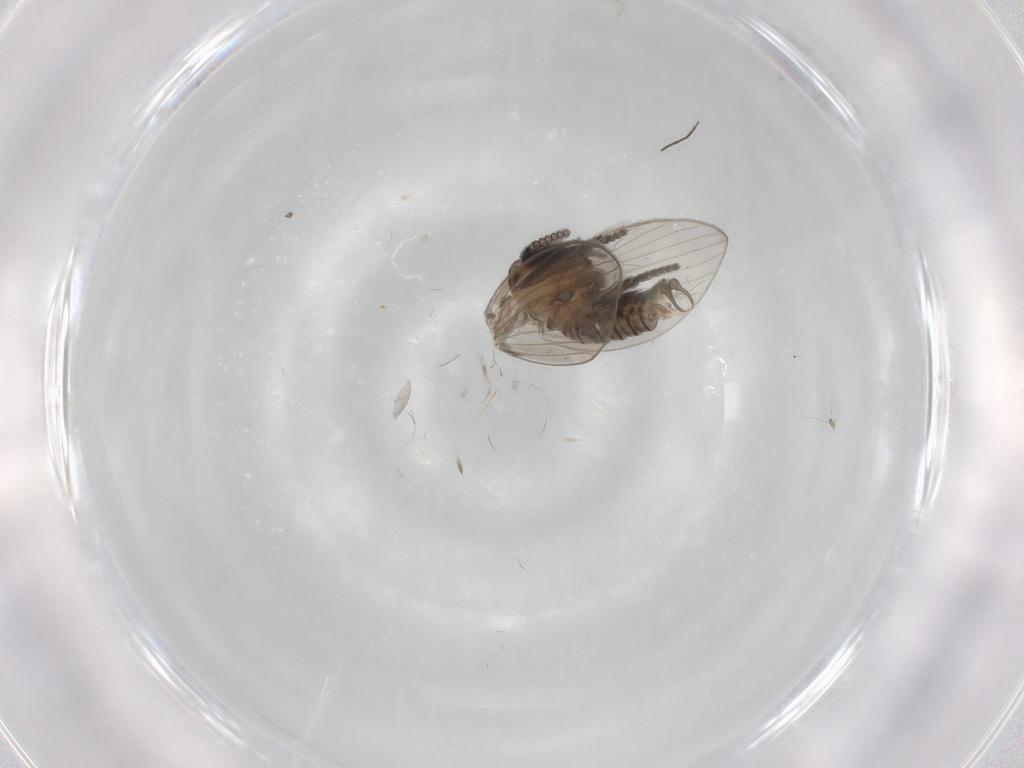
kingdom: Animalia
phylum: Arthropoda
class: Insecta
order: Diptera
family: Psychodidae
